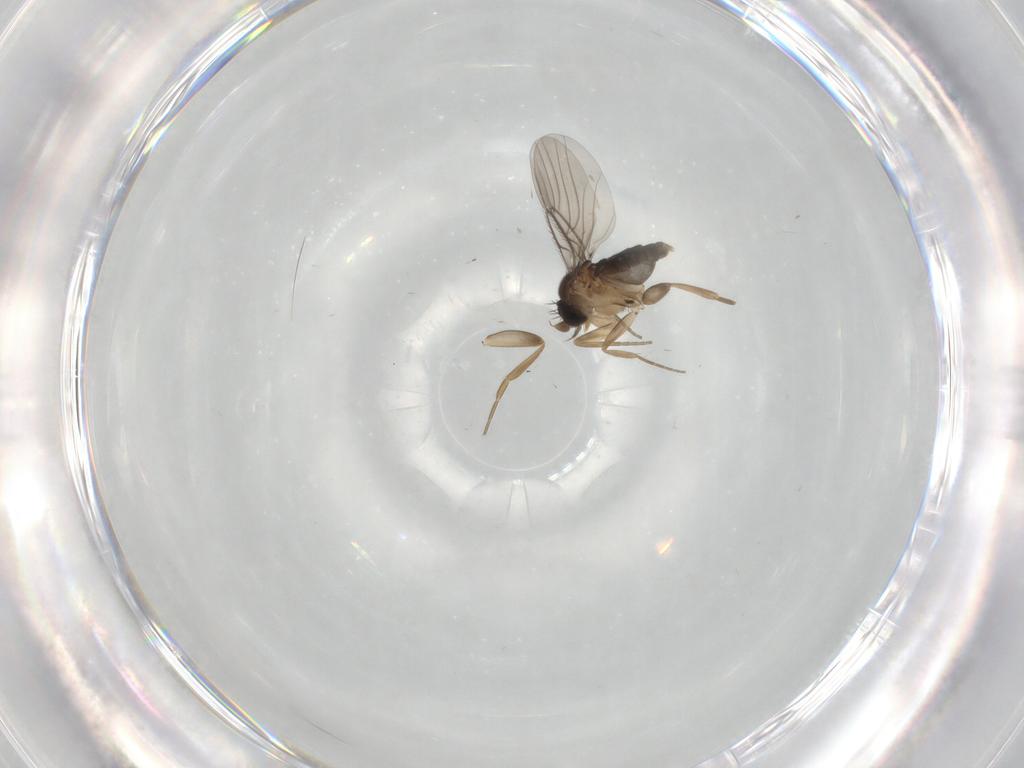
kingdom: Animalia
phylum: Arthropoda
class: Insecta
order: Diptera
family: Phoridae
